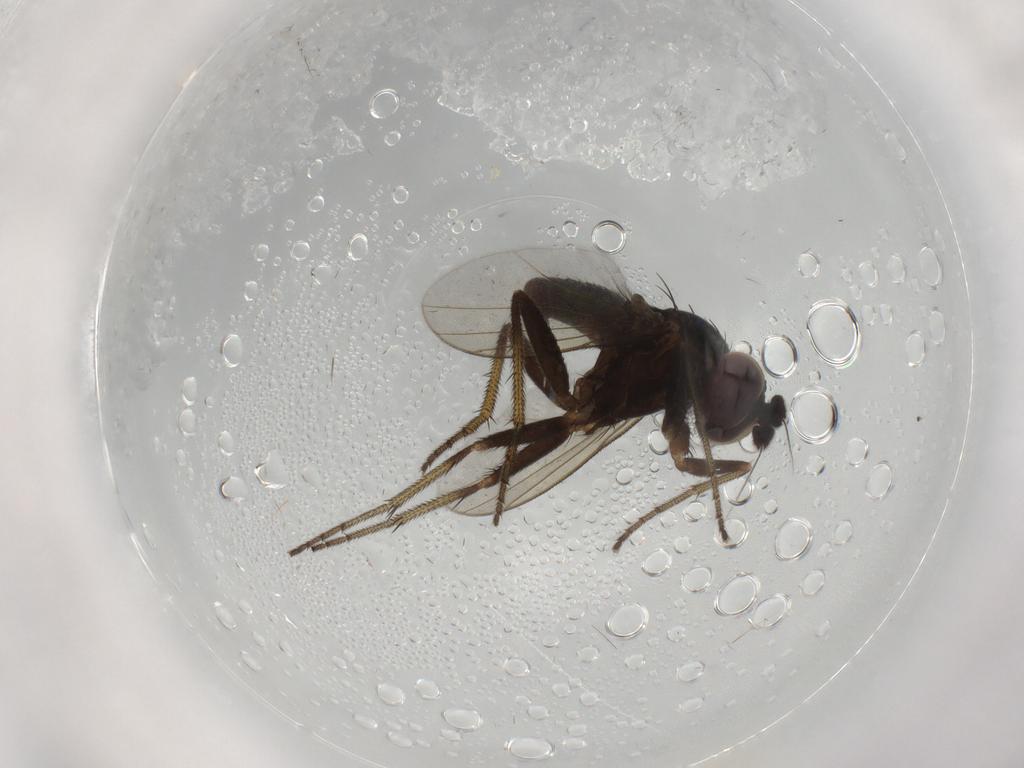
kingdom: Animalia
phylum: Arthropoda
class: Insecta
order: Diptera
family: Dolichopodidae
